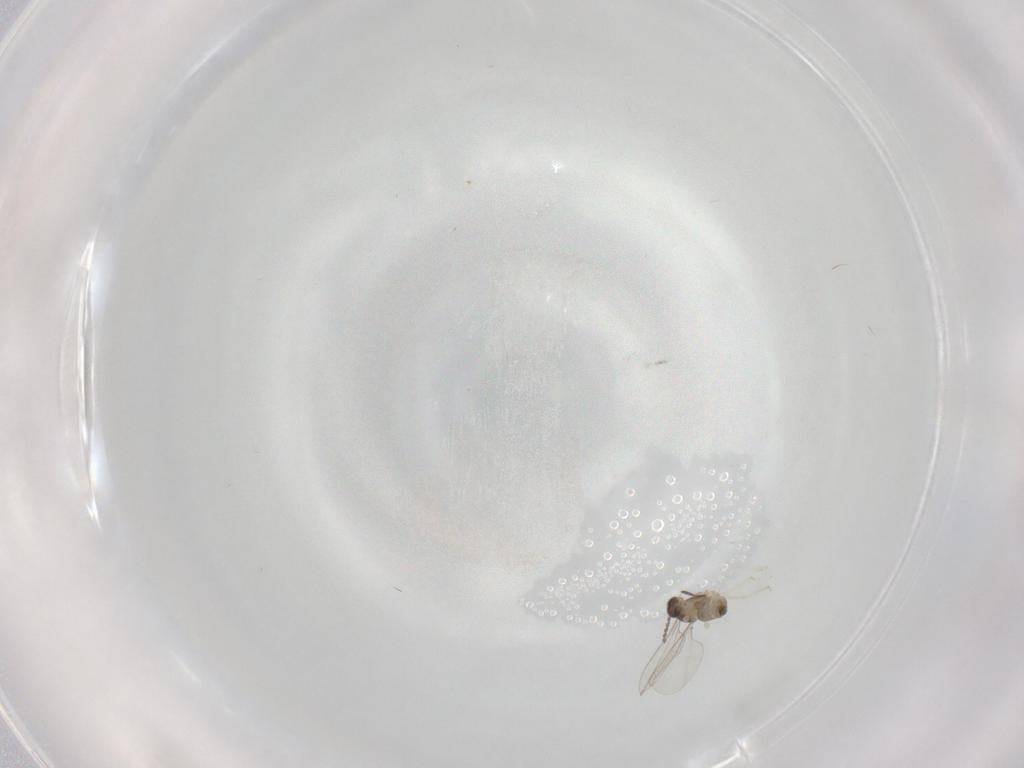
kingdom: Animalia
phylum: Arthropoda
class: Insecta
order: Diptera
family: Cecidomyiidae
